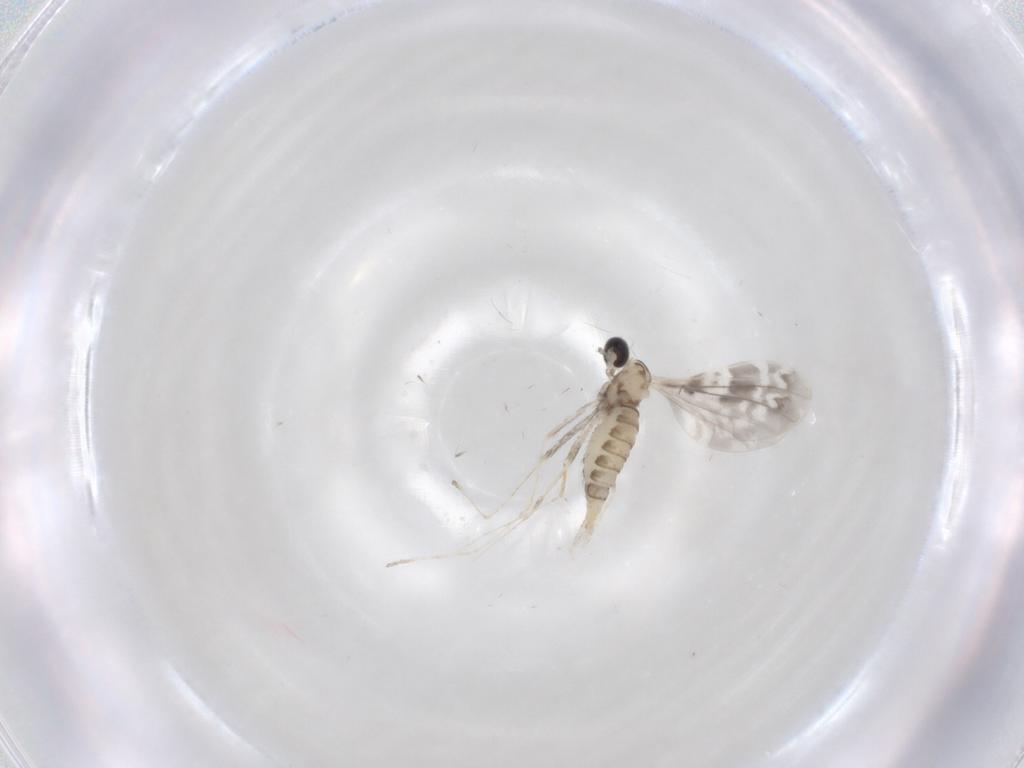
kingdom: Animalia
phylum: Arthropoda
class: Insecta
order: Diptera
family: Cecidomyiidae
